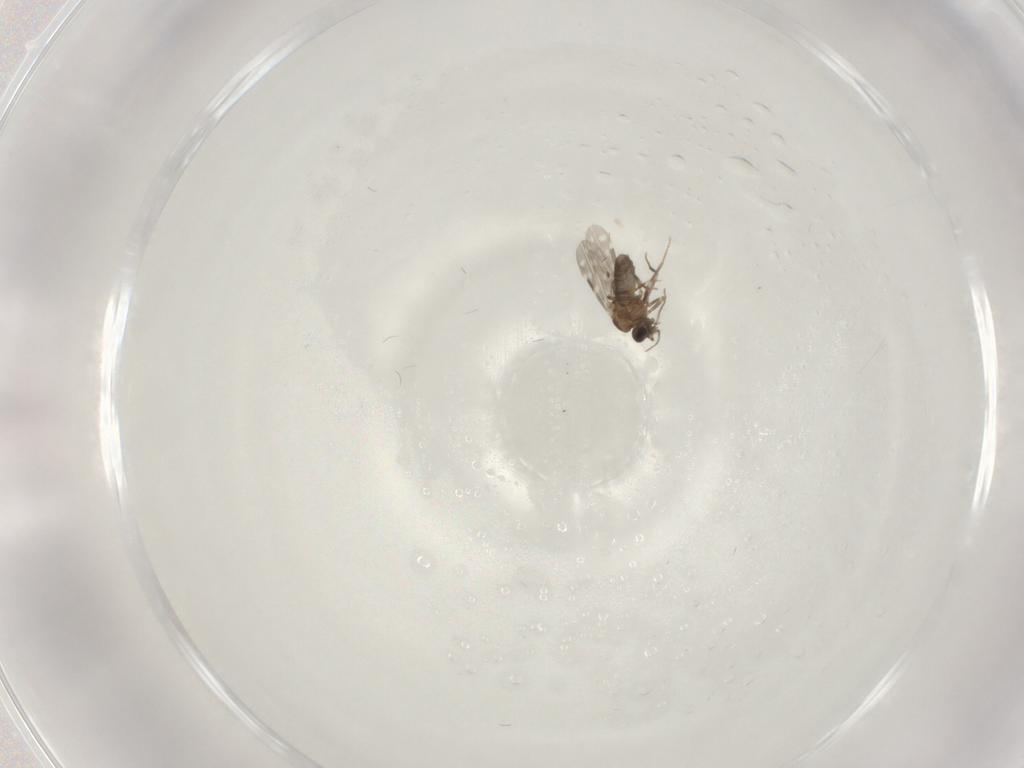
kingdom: Animalia
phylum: Arthropoda
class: Insecta
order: Diptera
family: Cecidomyiidae
